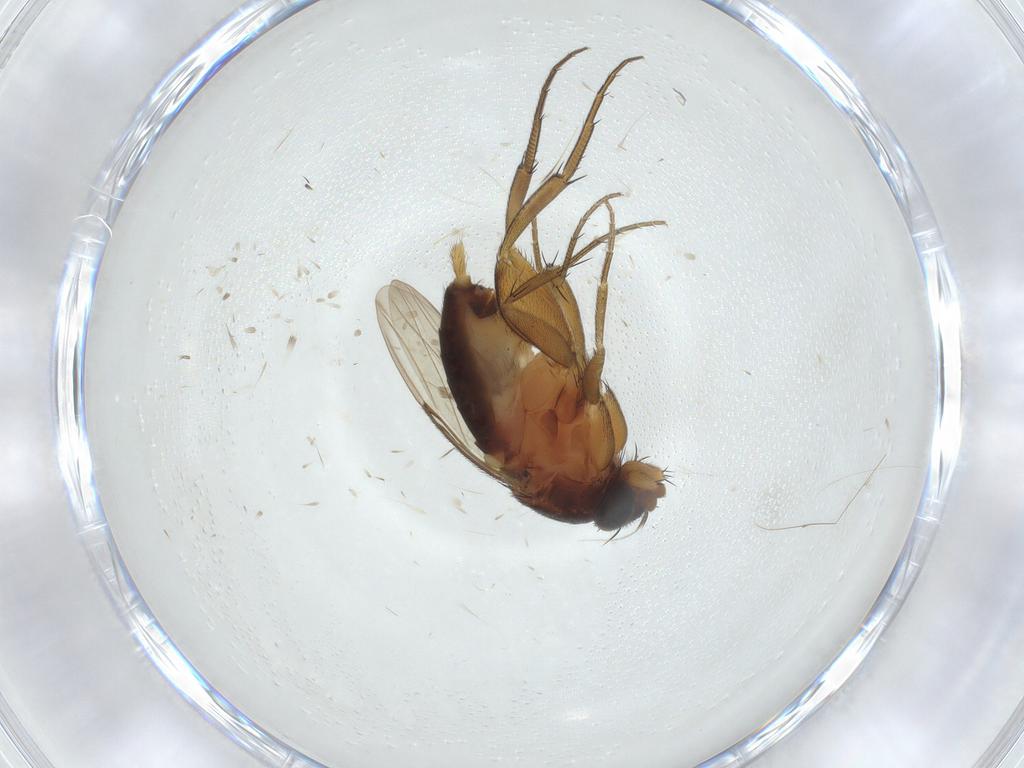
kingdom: Animalia
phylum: Arthropoda
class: Insecta
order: Diptera
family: Phoridae
